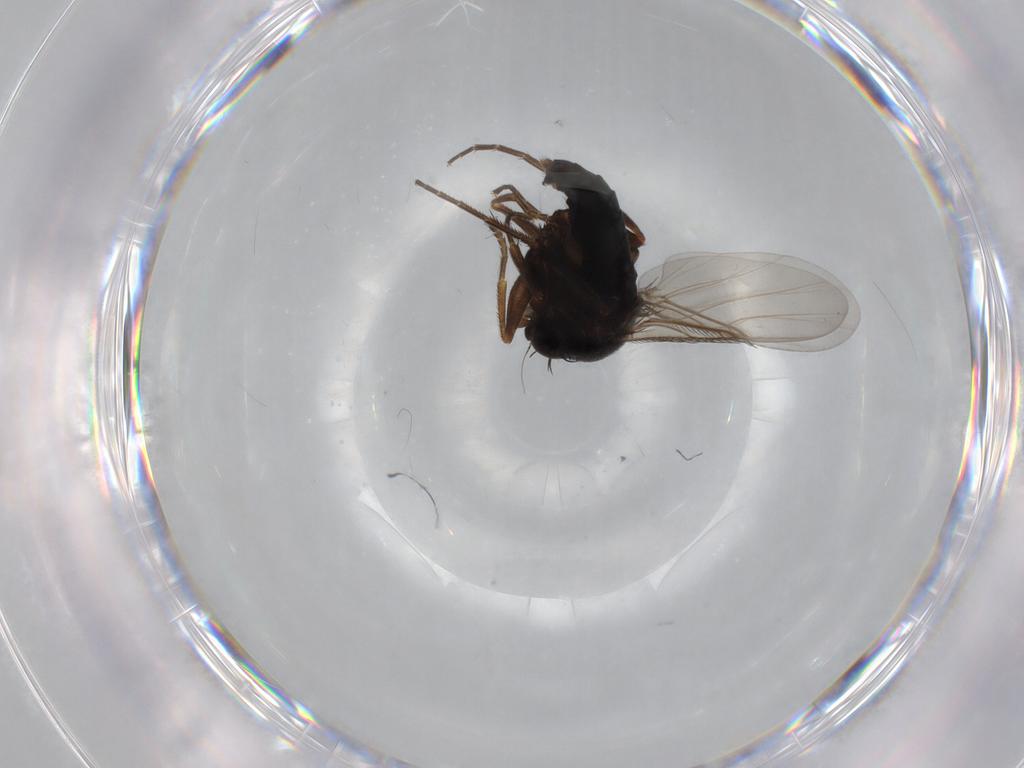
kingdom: Animalia
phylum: Arthropoda
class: Insecta
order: Diptera
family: Phoridae
